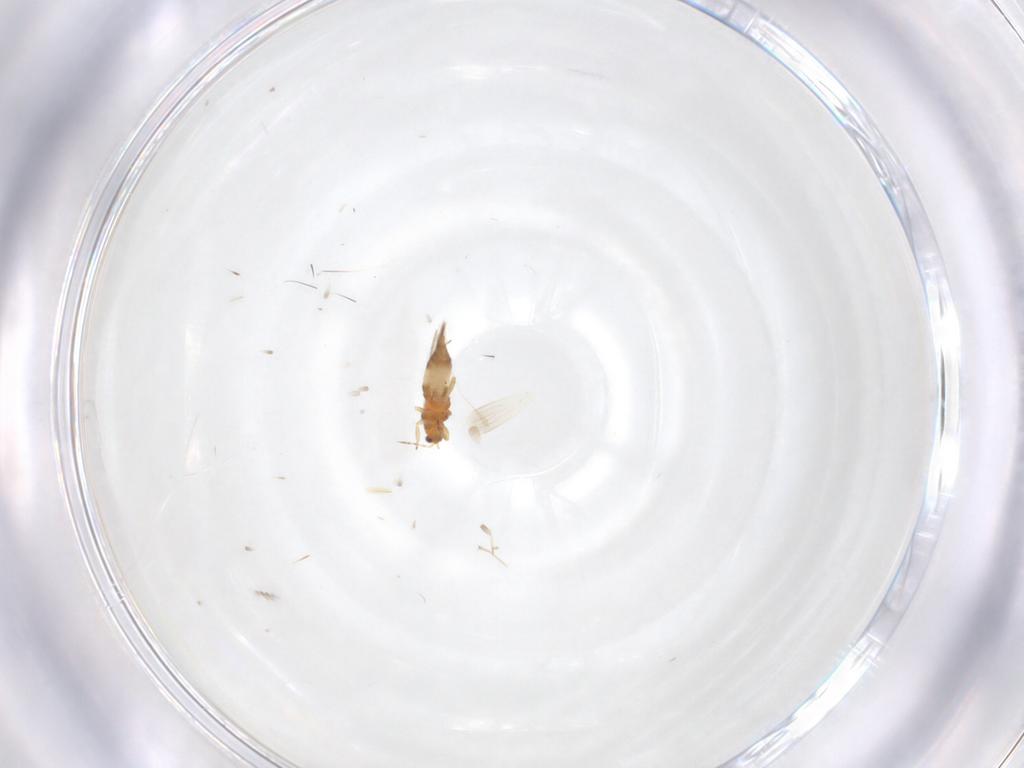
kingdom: Animalia
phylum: Arthropoda
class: Insecta
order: Thysanoptera
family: Thripidae
